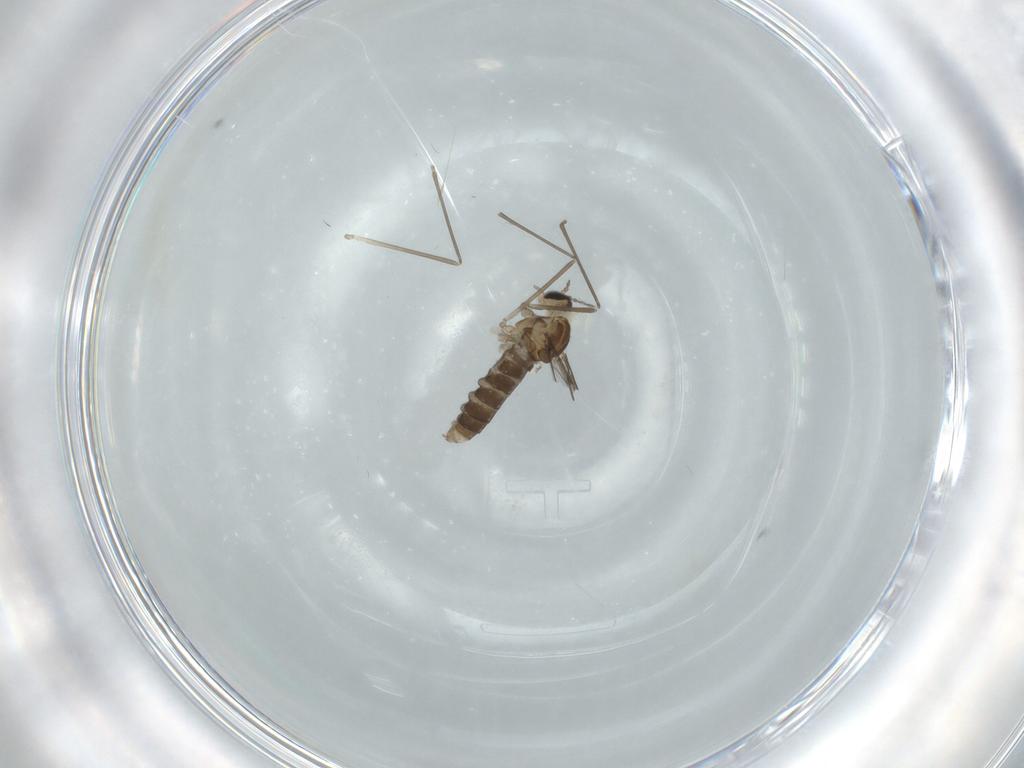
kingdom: Animalia
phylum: Arthropoda
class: Insecta
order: Diptera
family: Cecidomyiidae
